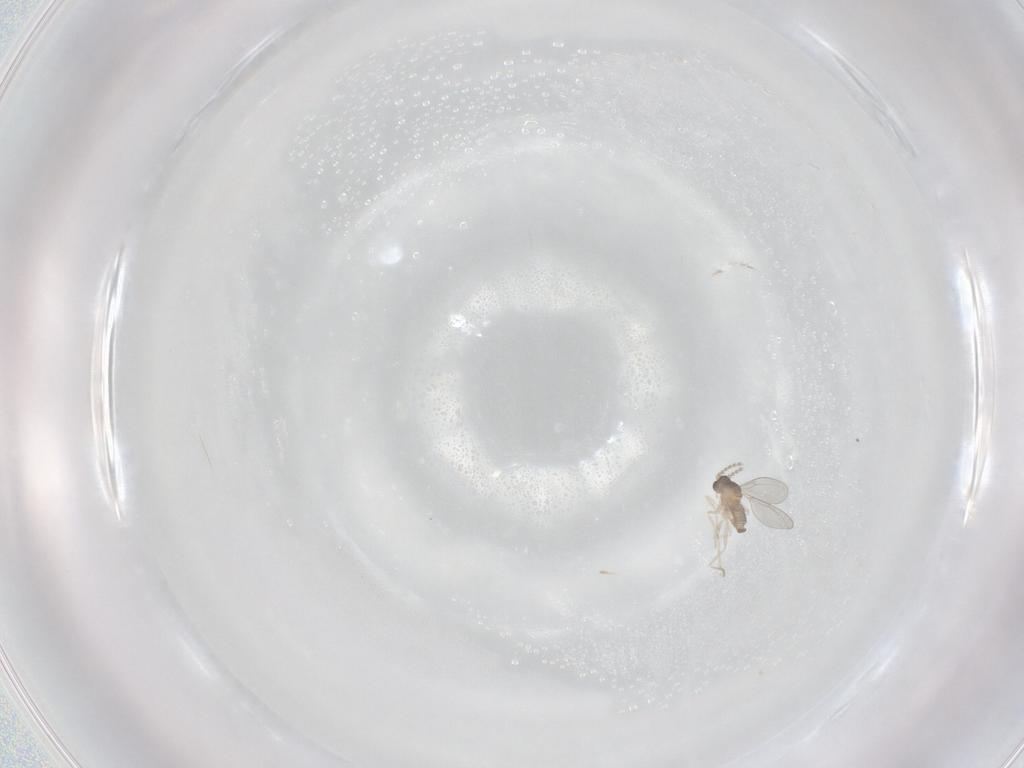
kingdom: Animalia
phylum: Arthropoda
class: Insecta
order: Diptera
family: Cecidomyiidae
